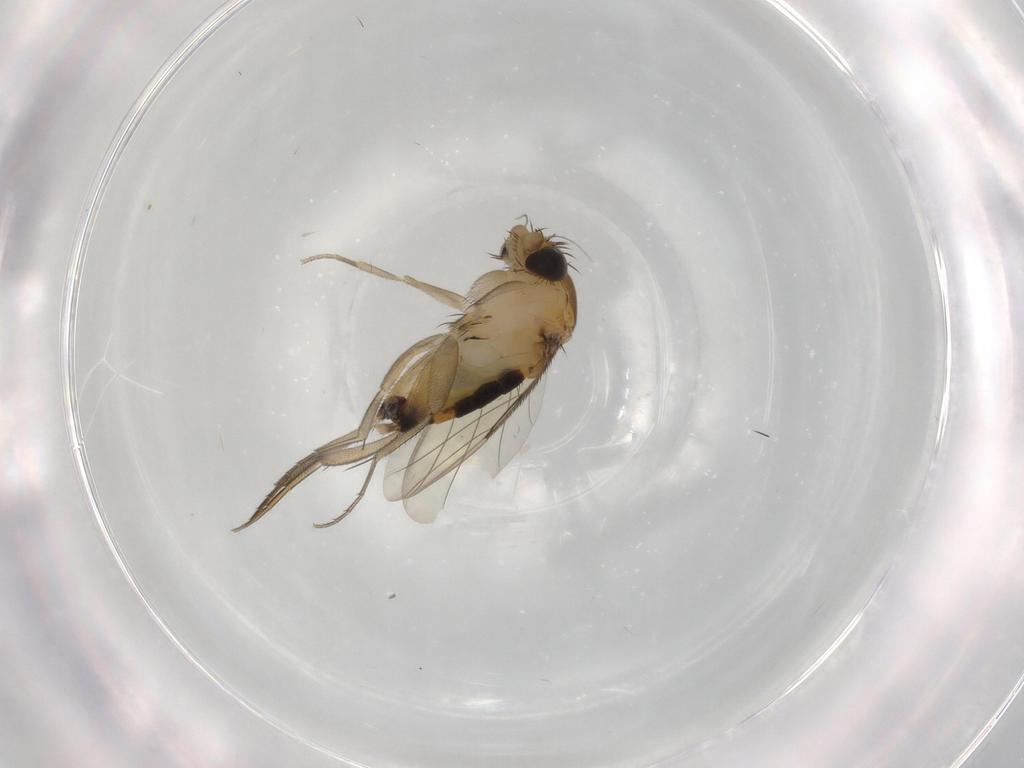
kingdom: Animalia
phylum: Arthropoda
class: Insecta
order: Diptera
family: Phoridae
